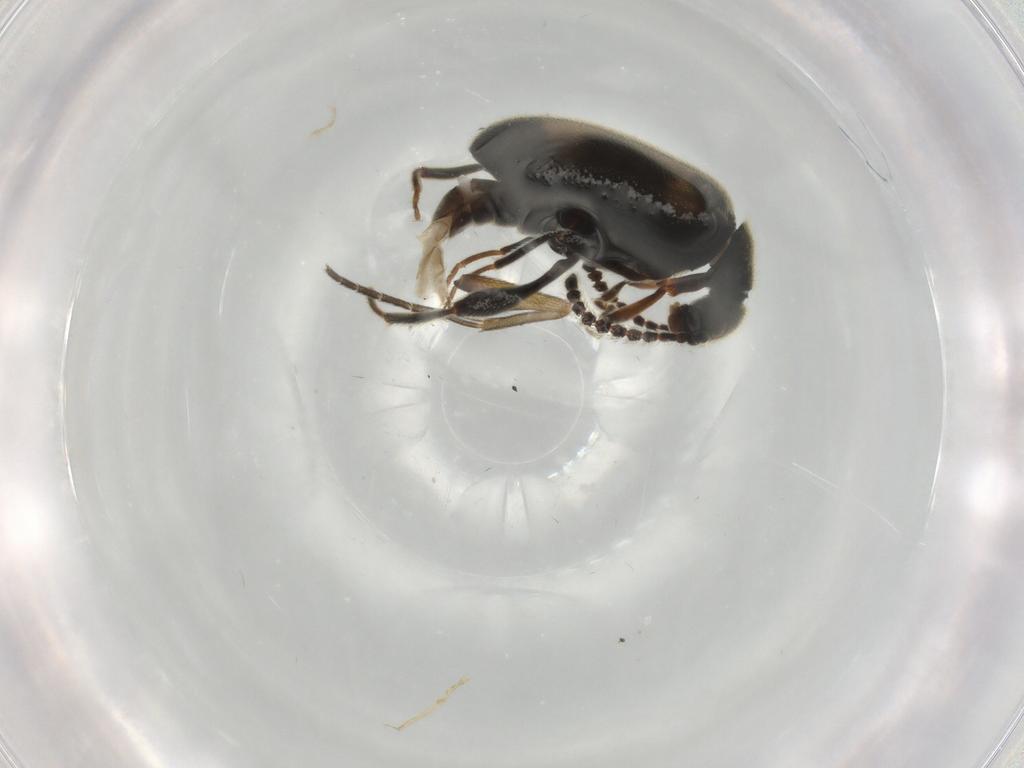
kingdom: Animalia
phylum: Arthropoda
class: Insecta
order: Coleoptera
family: Aderidae
